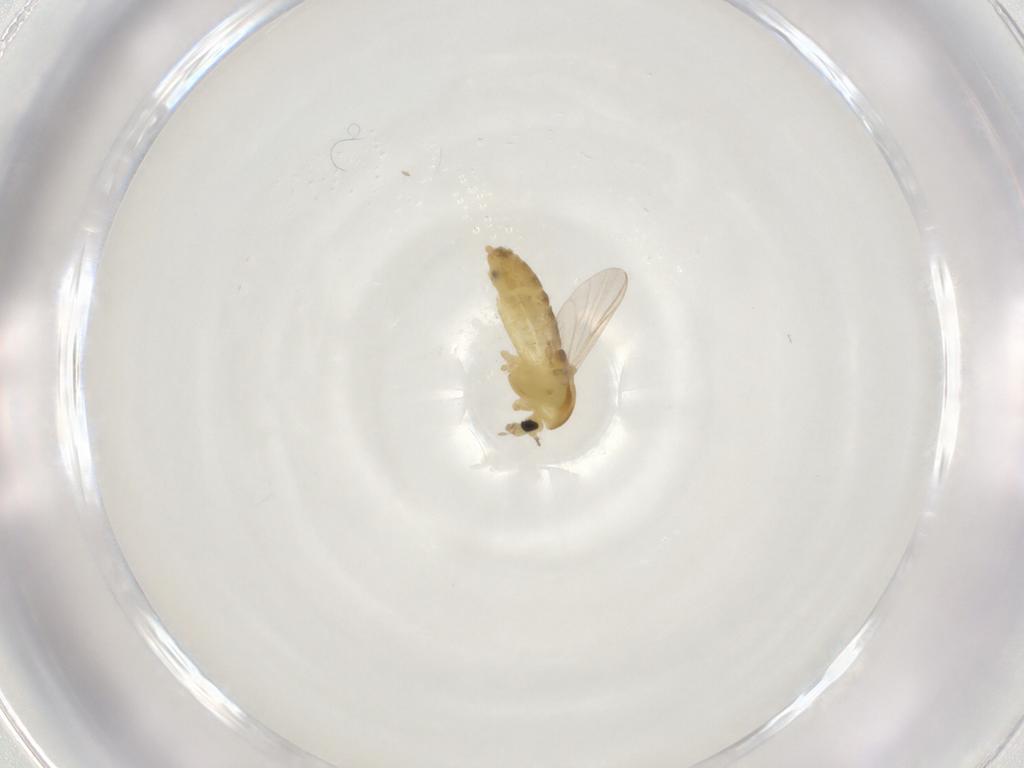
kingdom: Animalia
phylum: Arthropoda
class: Insecta
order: Diptera
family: Chironomidae
